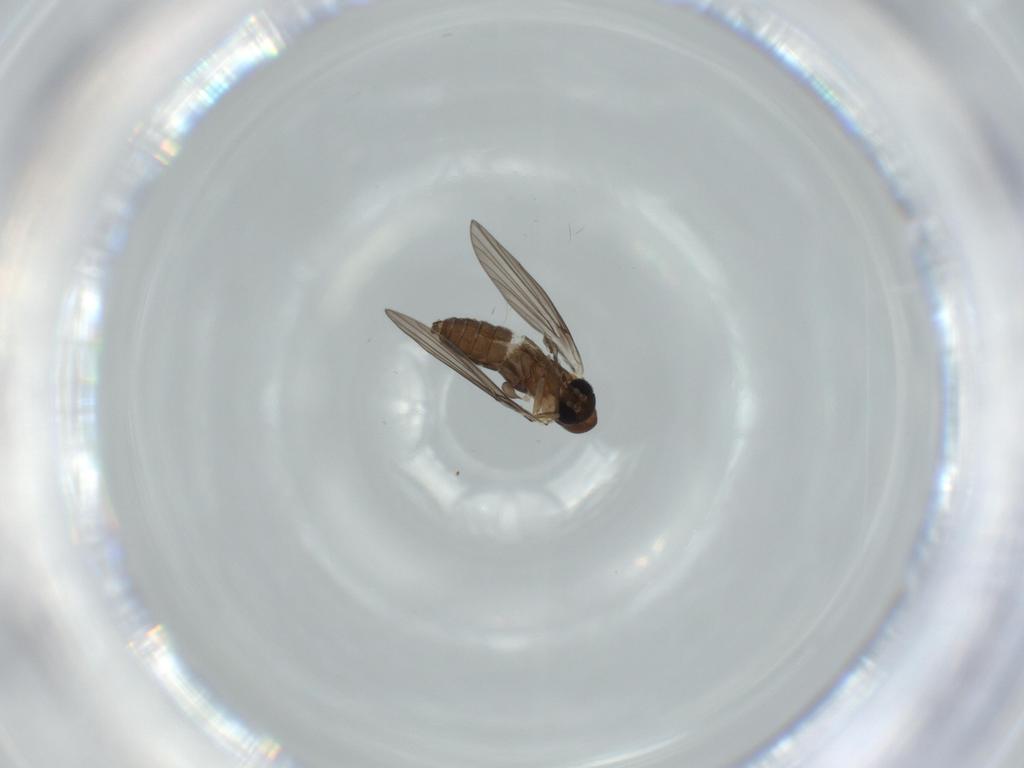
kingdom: Animalia
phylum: Arthropoda
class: Insecta
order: Diptera
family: Psychodidae
